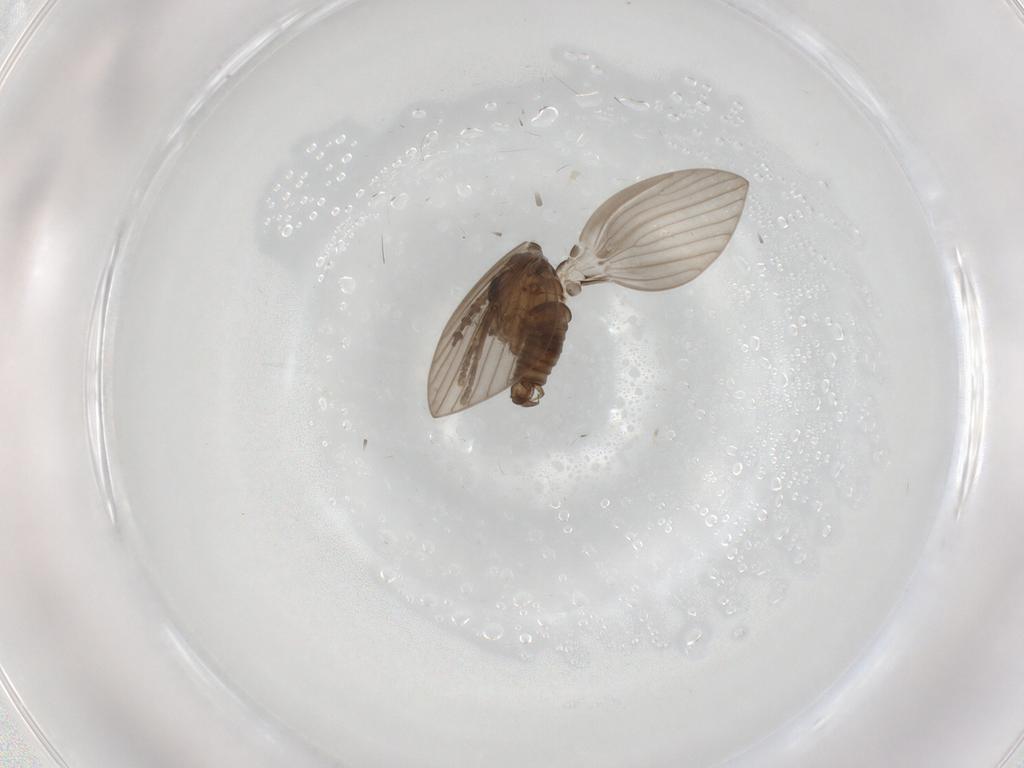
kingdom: Animalia
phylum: Arthropoda
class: Insecta
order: Diptera
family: Psychodidae
